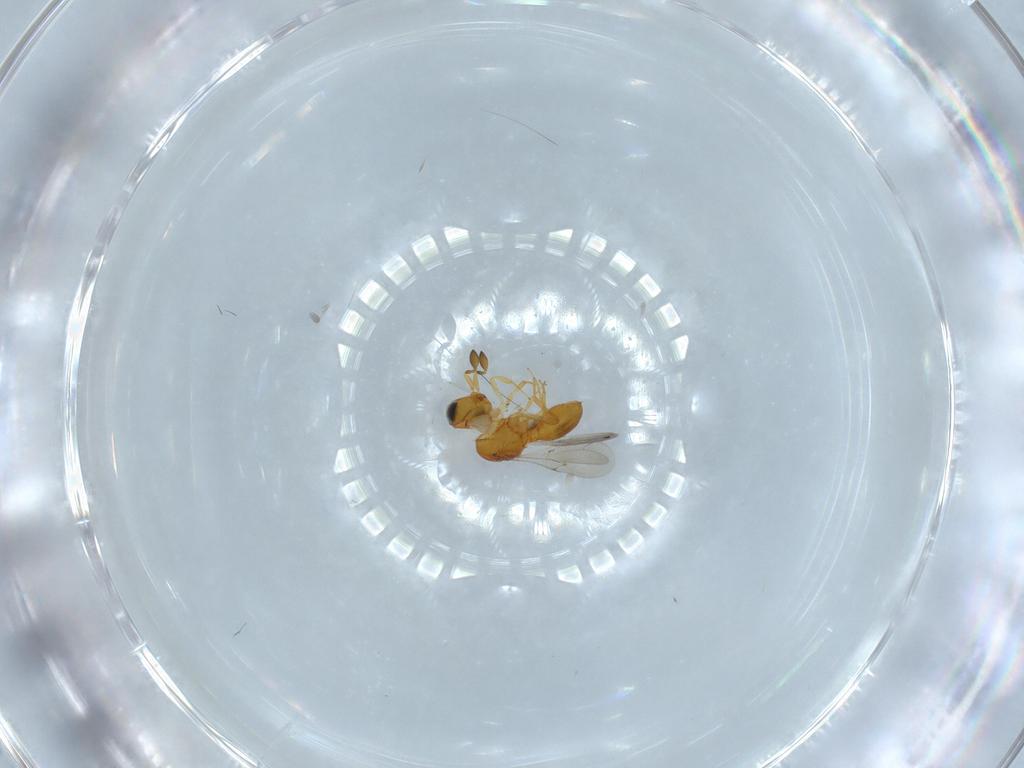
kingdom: Animalia
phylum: Arthropoda
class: Insecta
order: Hymenoptera
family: Scelionidae
